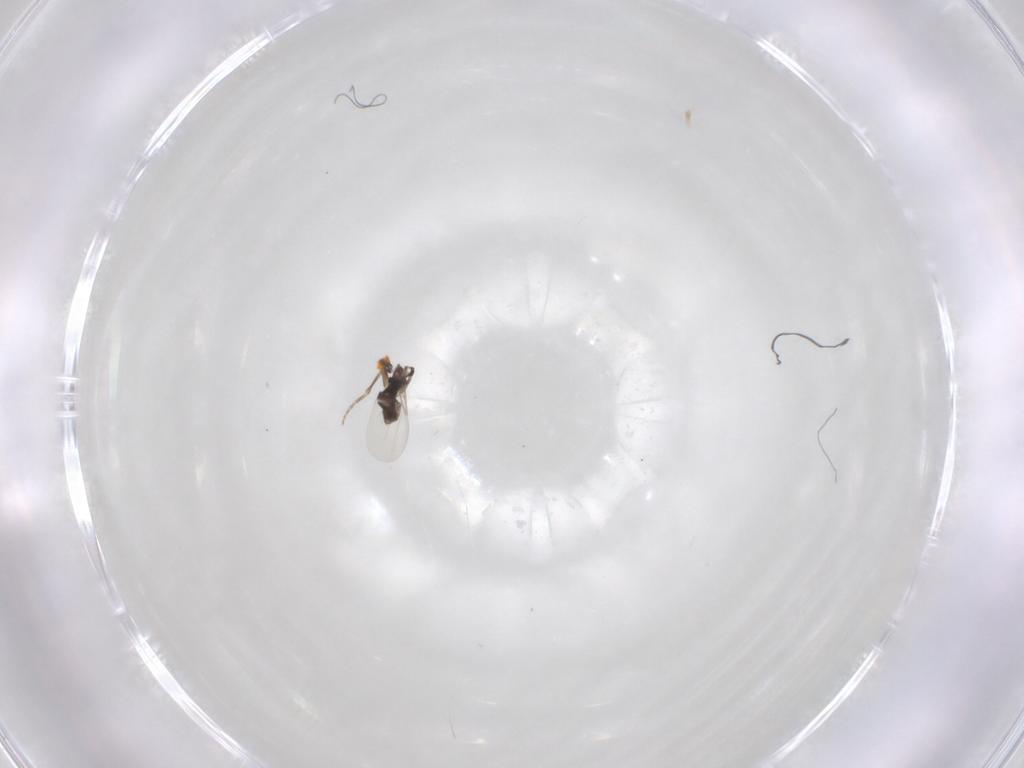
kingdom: Animalia
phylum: Arthropoda
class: Insecta
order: Diptera
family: Phoridae
